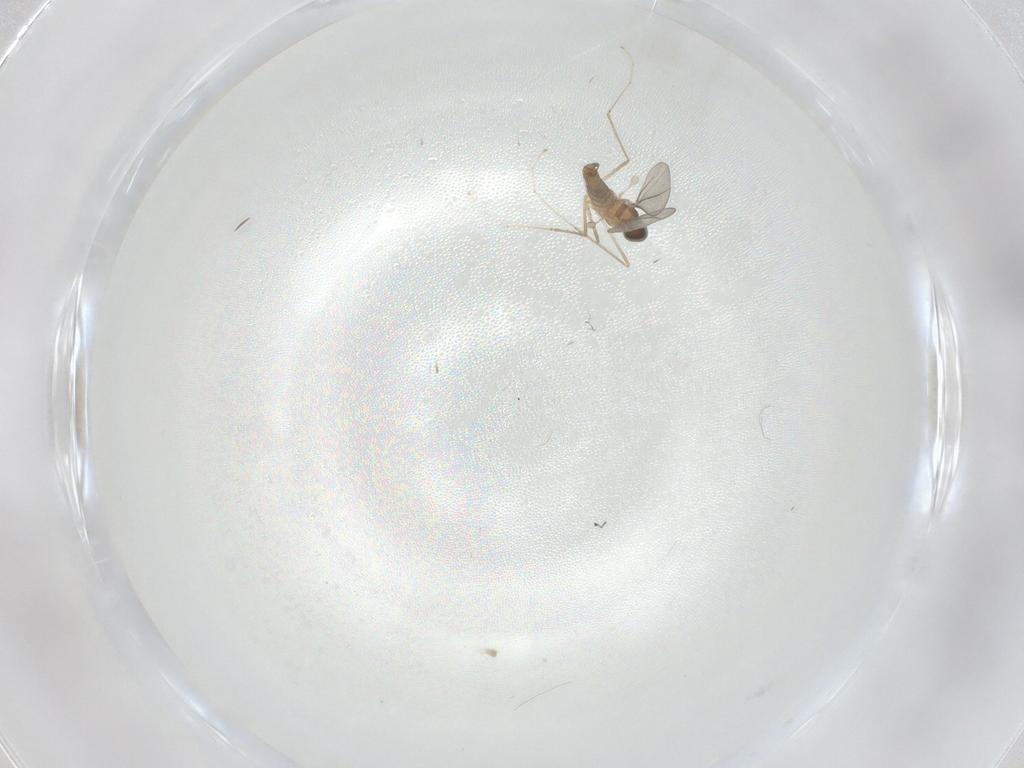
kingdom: Animalia
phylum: Arthropoda
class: Insecta
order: Diptera
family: Cecidomyiidae
